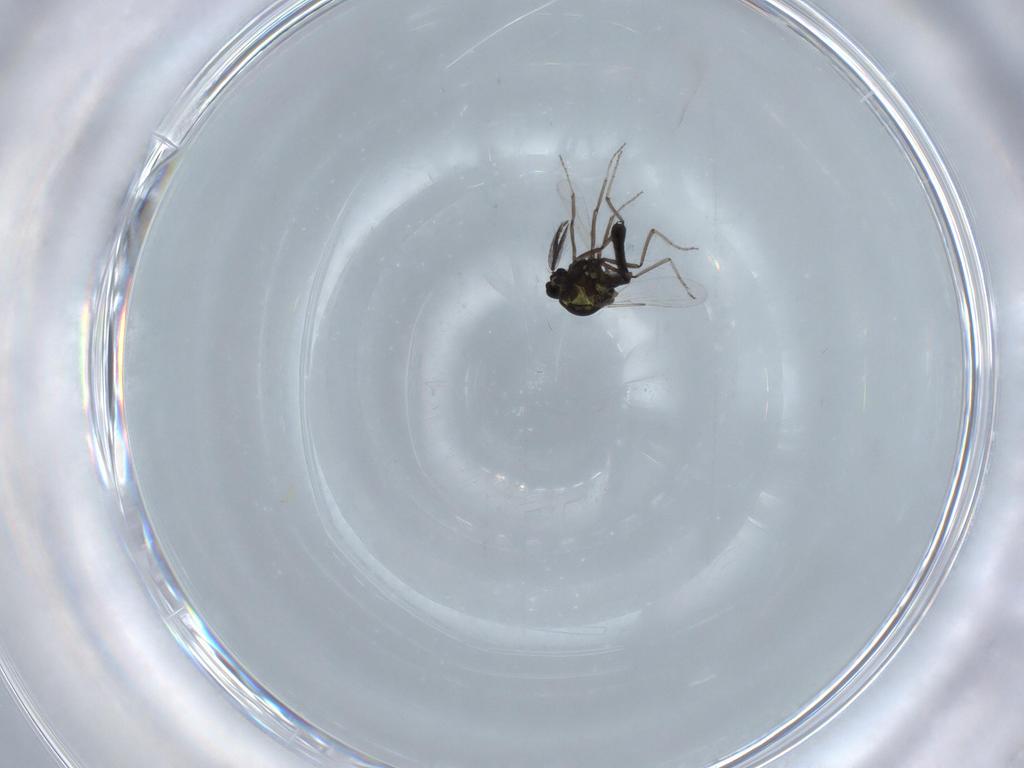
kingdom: Animalia
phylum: Arthropoda
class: Insecta
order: Diptera
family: Ceratopogonidae
